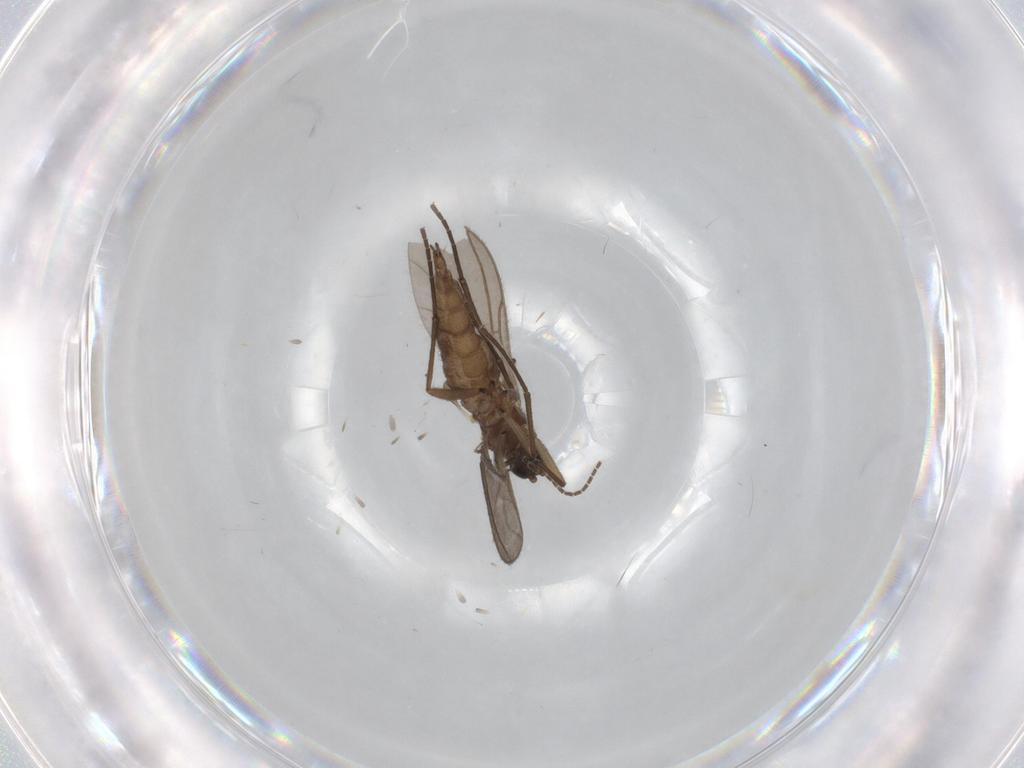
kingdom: Animalia
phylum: Arthropoda
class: Insecta
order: Diptera
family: Sciaridae
